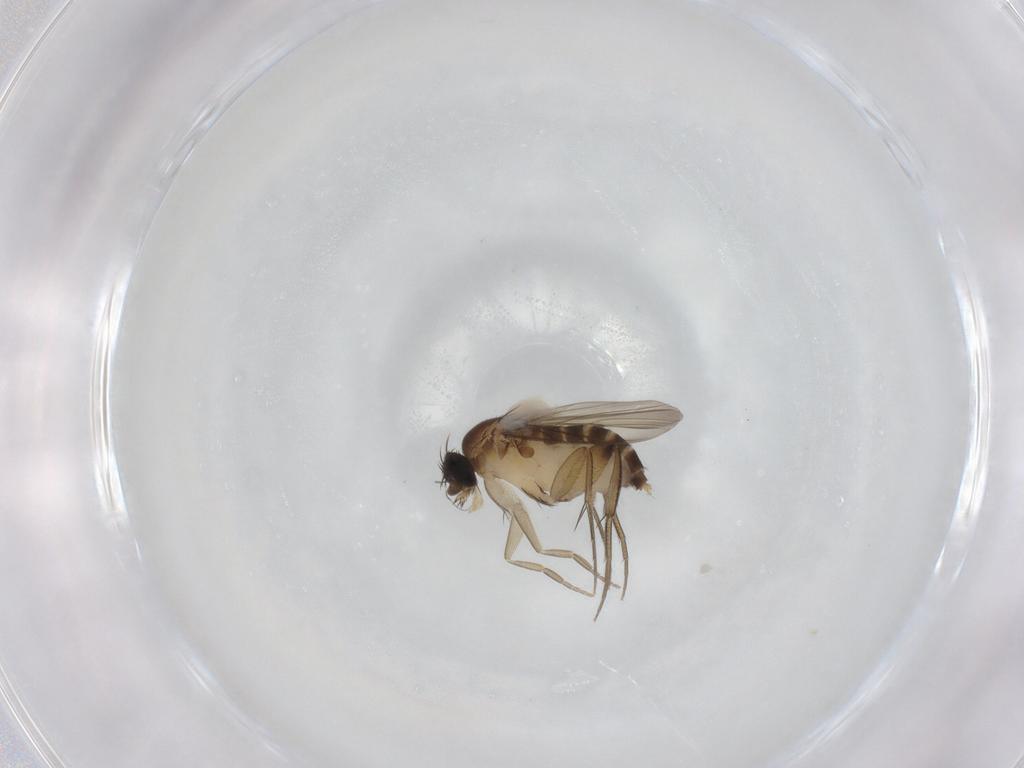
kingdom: Animalia
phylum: Arthropoda
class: Insecta
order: Diptera
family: Phoridae
